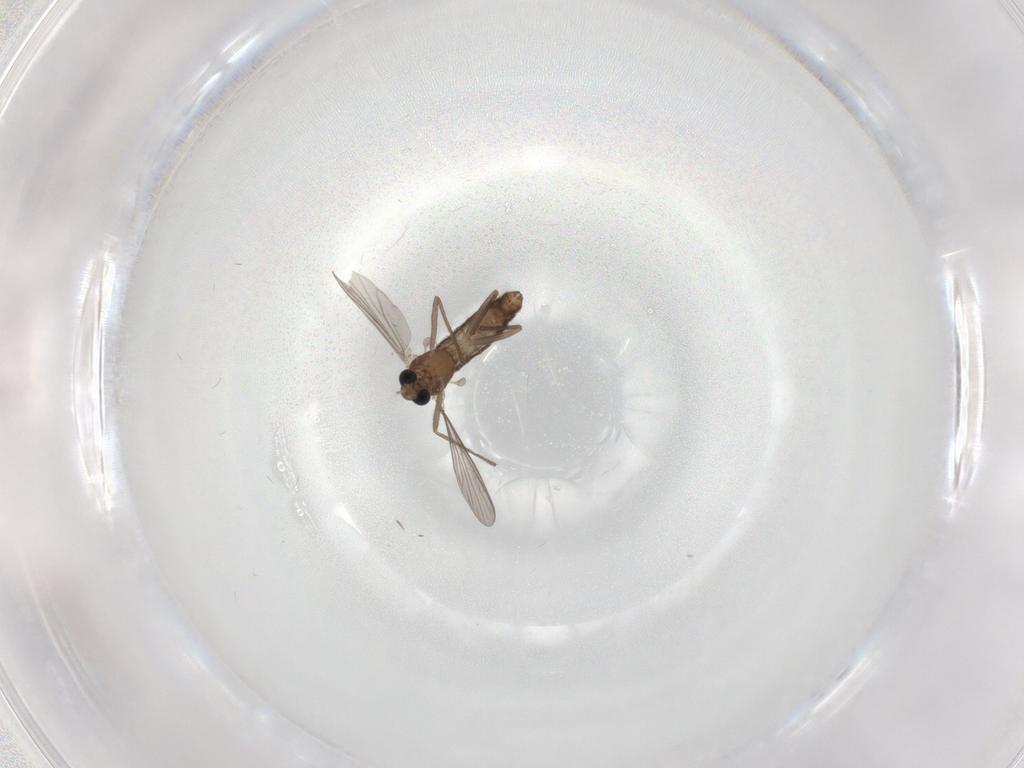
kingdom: Animalia
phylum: Arthropoda
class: Insecta
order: Diptera
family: Chironomidae
